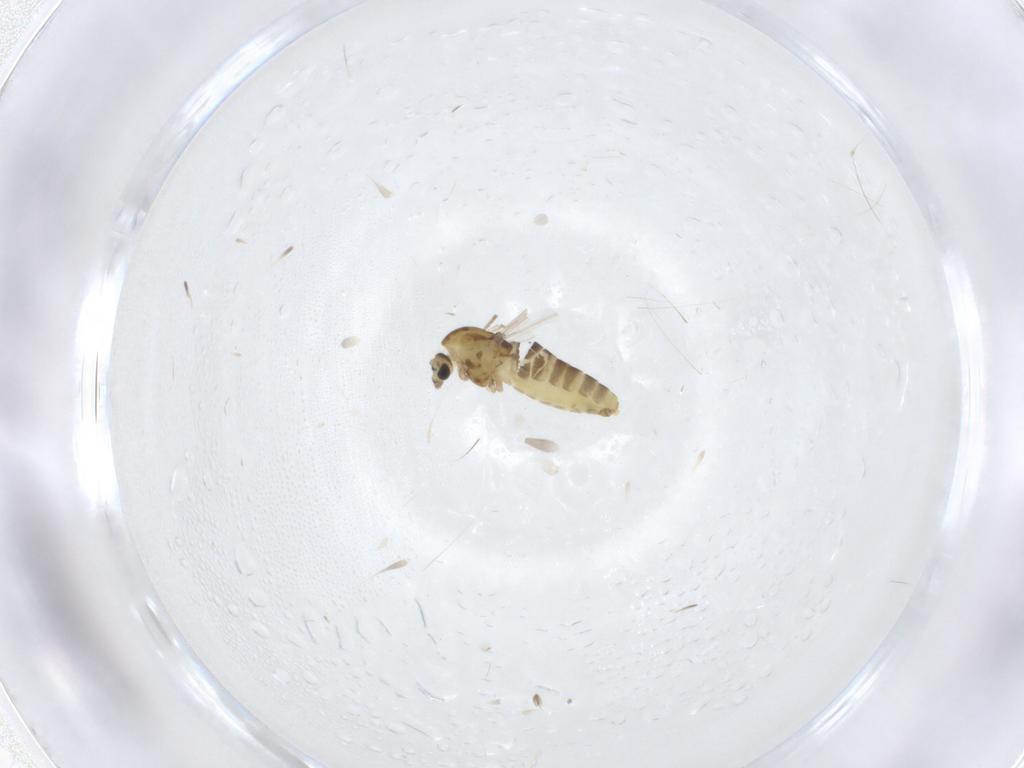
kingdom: Animalia
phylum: Arthropoda
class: Insecta
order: Diptera
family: Chironomidae
